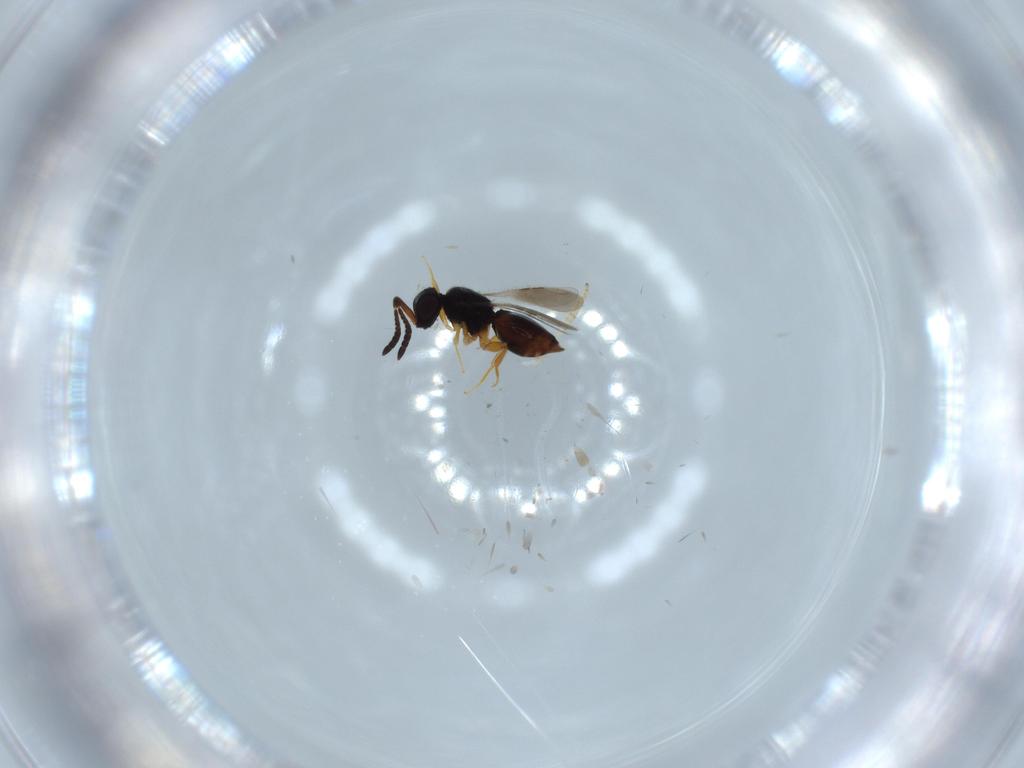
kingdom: Animalia
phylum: Arthropoda
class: Insecta
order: Hymenoptera
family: Ceraphronidae
